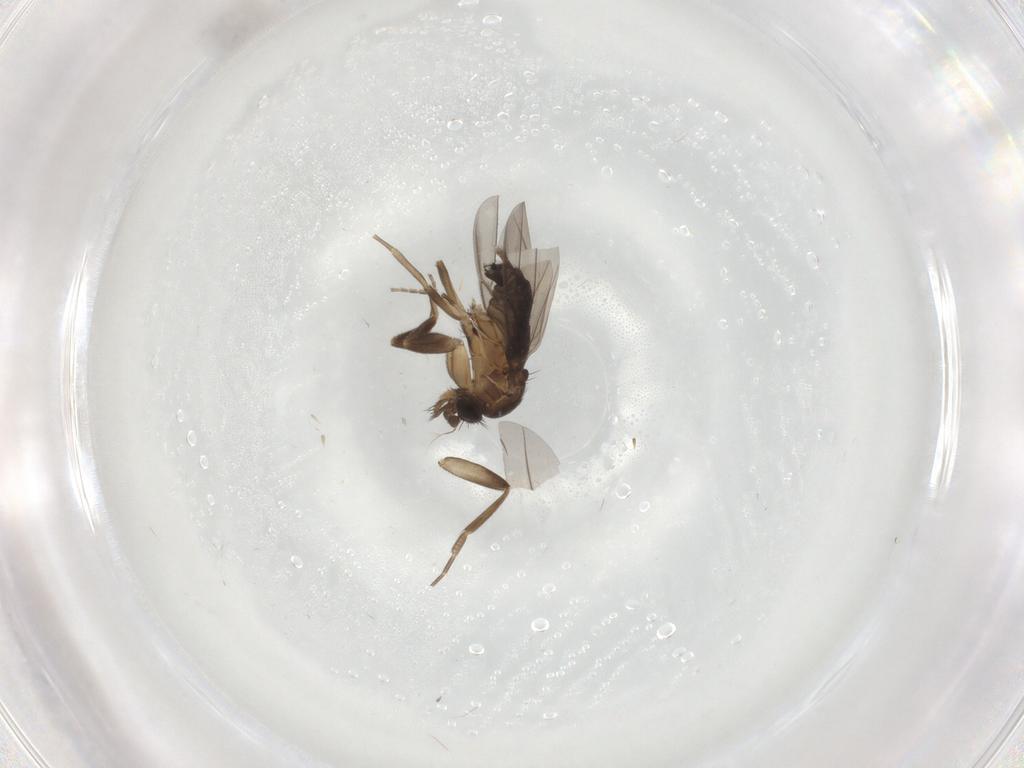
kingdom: Animalia
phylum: Arthropoda
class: Insecta
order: Diptera
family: Phoridae
